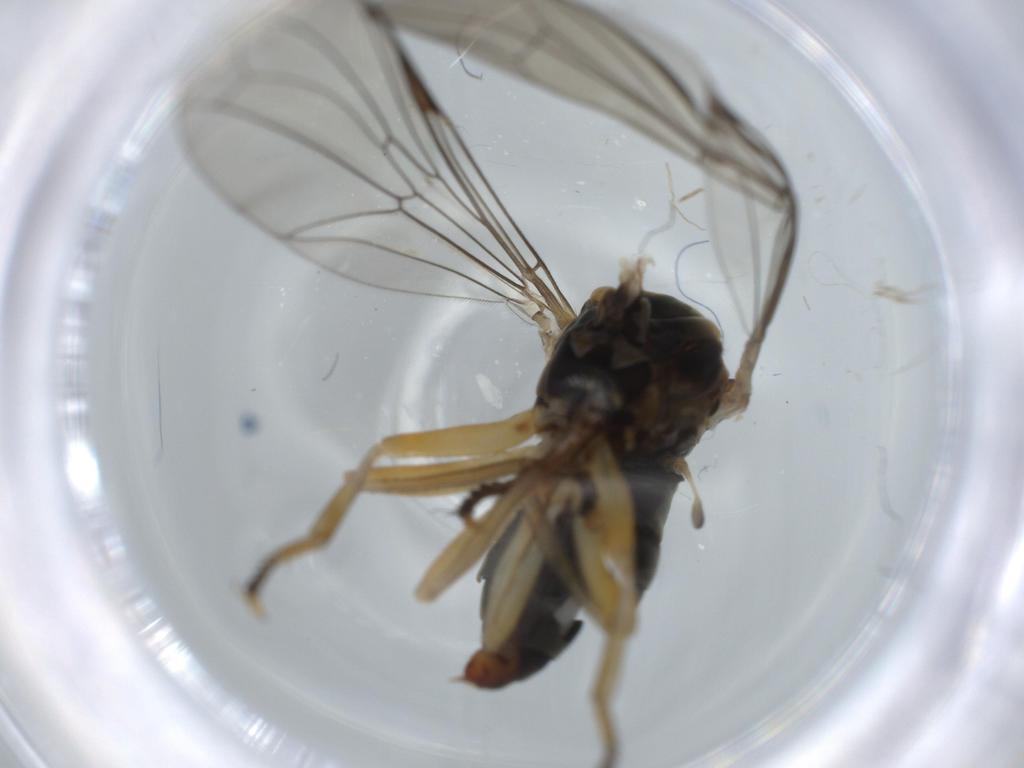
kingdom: Animalia
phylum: Arthropoda
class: Insecta
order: Diptera
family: Pipunculidae
